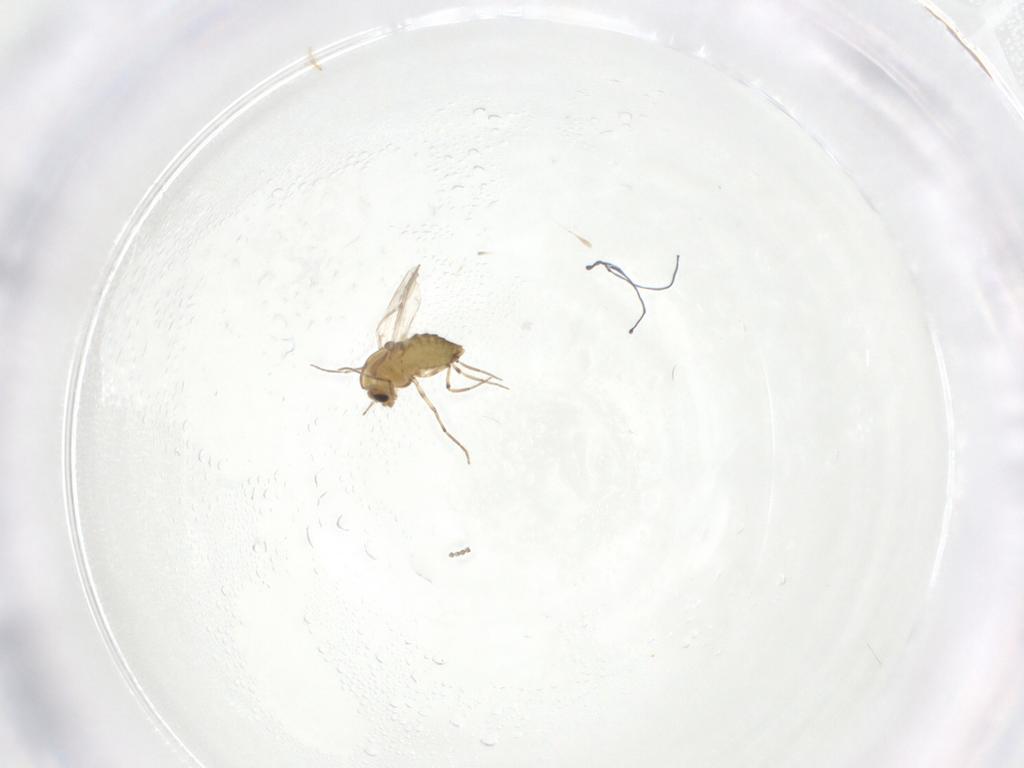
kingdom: Animalia
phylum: Arthropoda
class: Insecta
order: Diptera
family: Chironomidae
